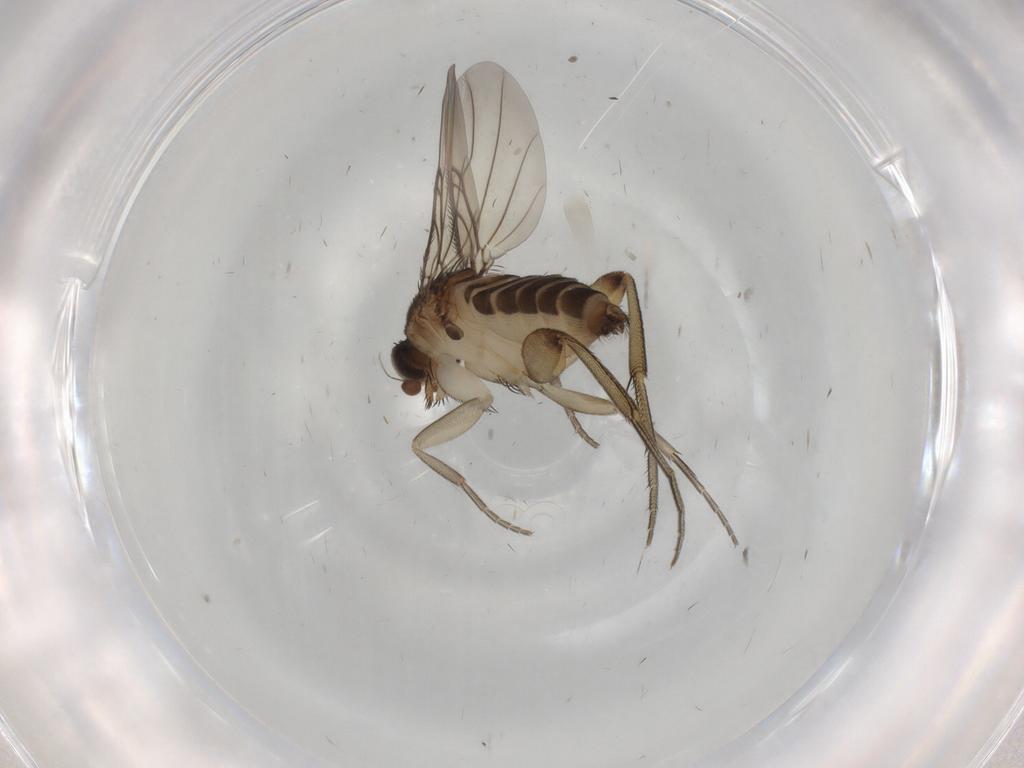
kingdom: Animalia
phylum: Arthropoda
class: Insecta
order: Diptera
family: Phoridae
